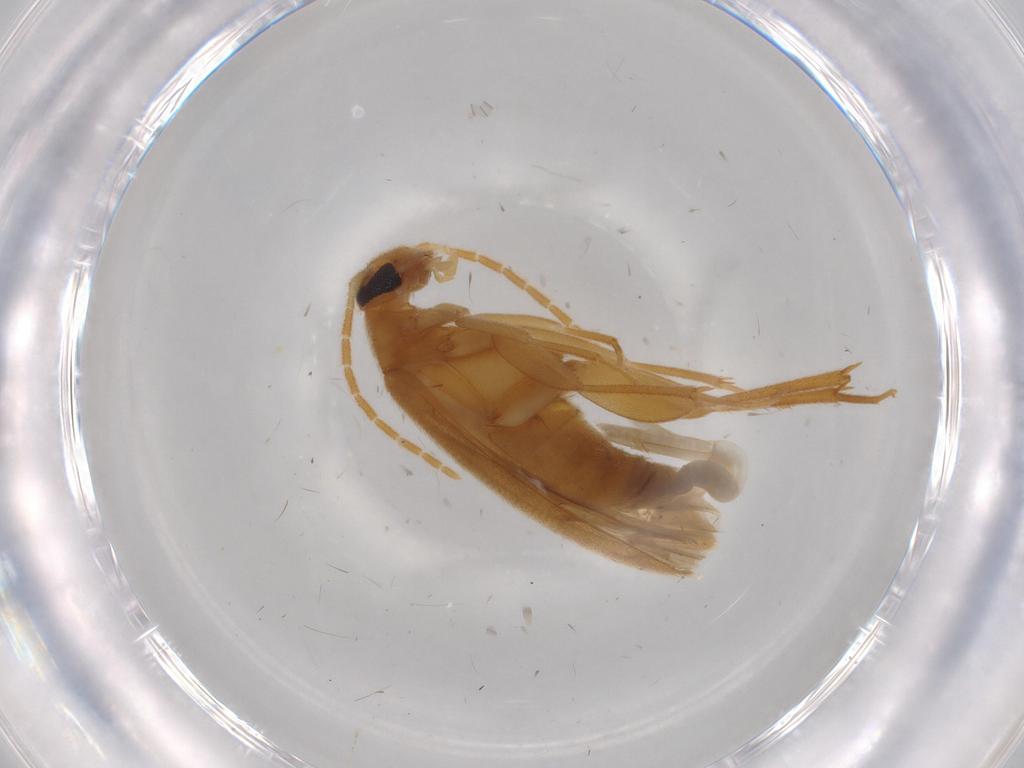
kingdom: Animalia
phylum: Arthropoda
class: Insecta
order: Coleoptera
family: Scraptiidae
